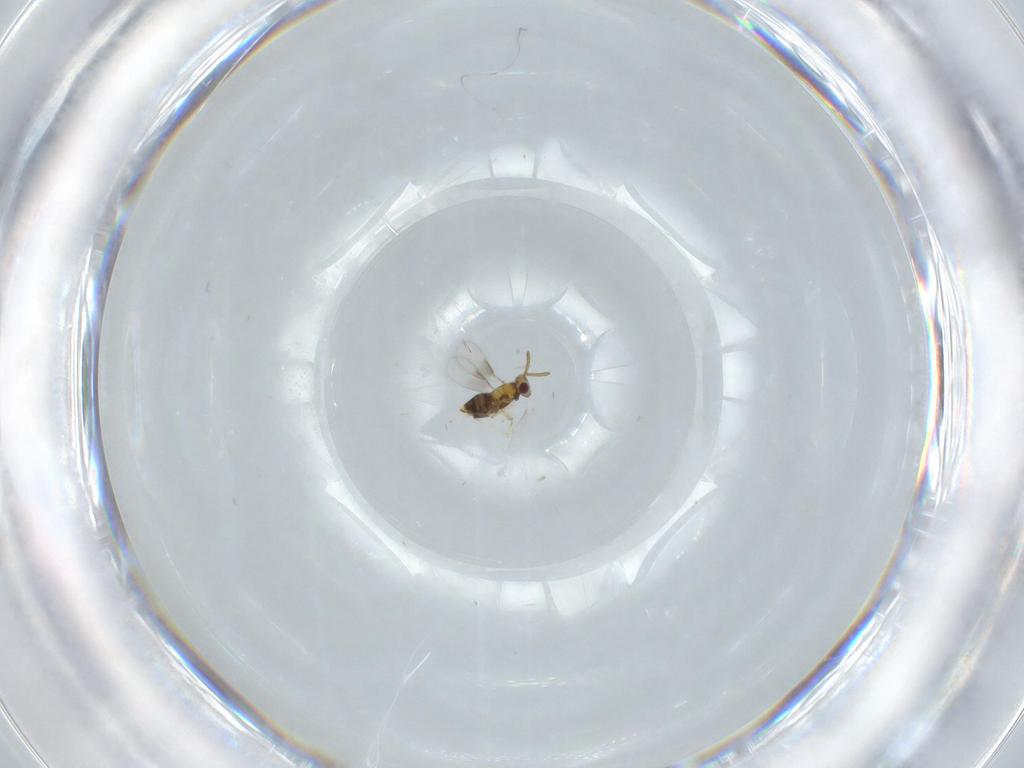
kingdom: Animalia
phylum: Arthropoda
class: Insecta
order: Hymenoptera
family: Aphelinidae
